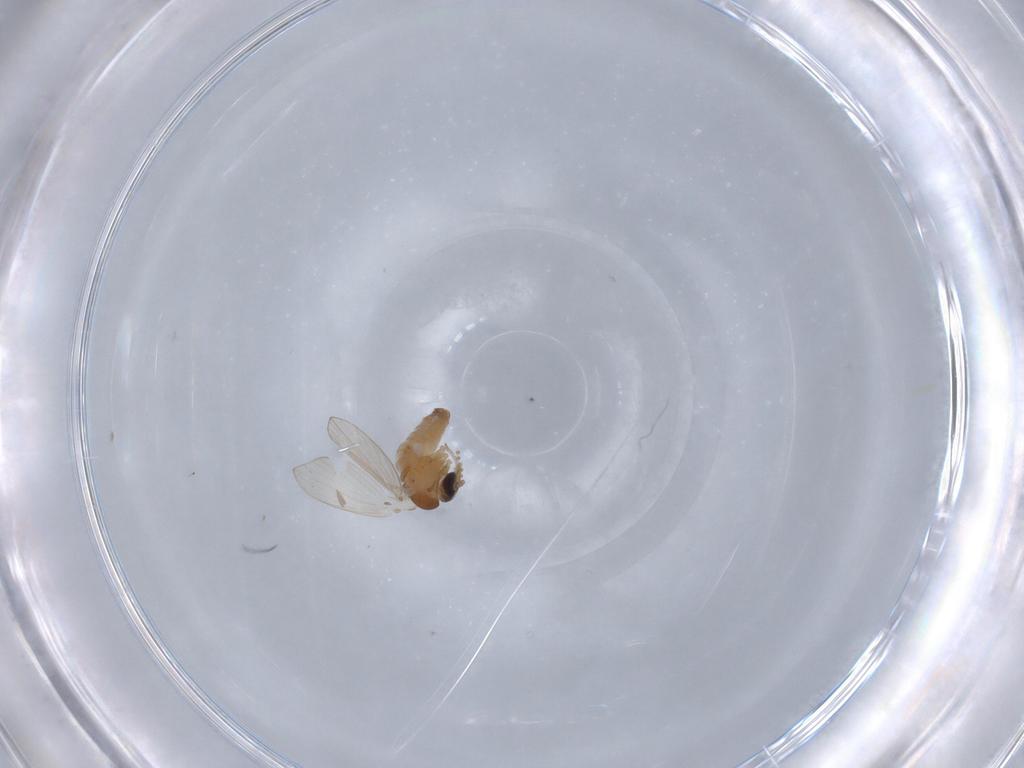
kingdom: Animalia
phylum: Arthropoda
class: Insecta
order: Diptera
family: Psychodidae
